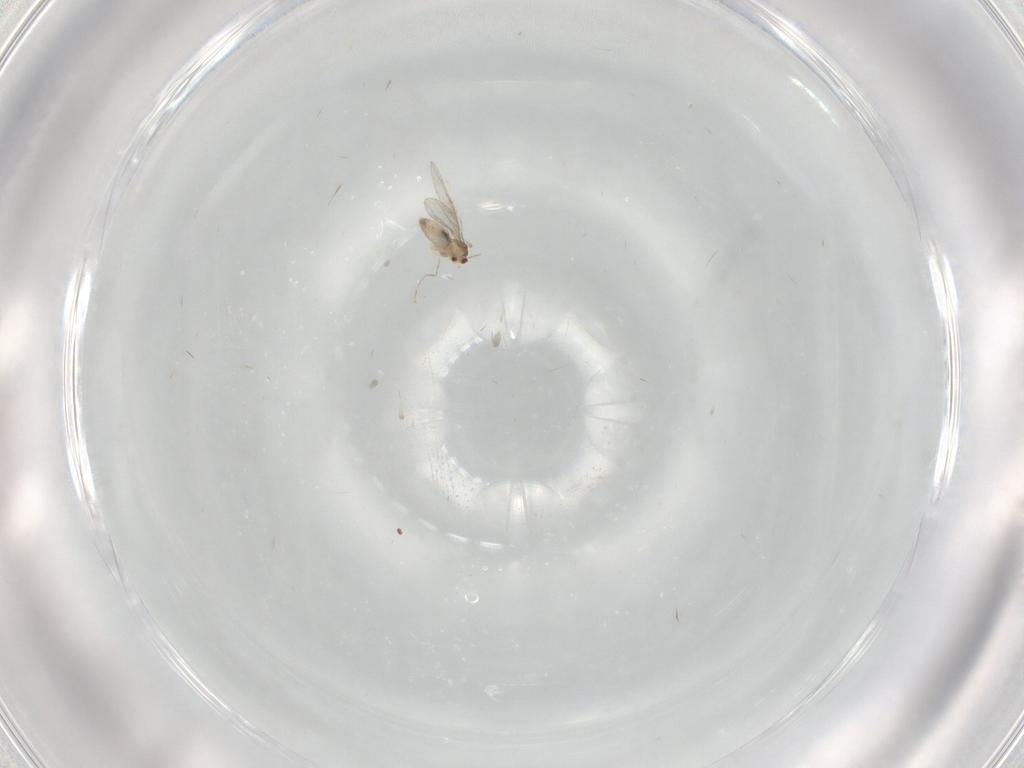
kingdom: Animalia
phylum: Arthropoda
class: Insecta
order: Diptera
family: Cecidomyiidae
